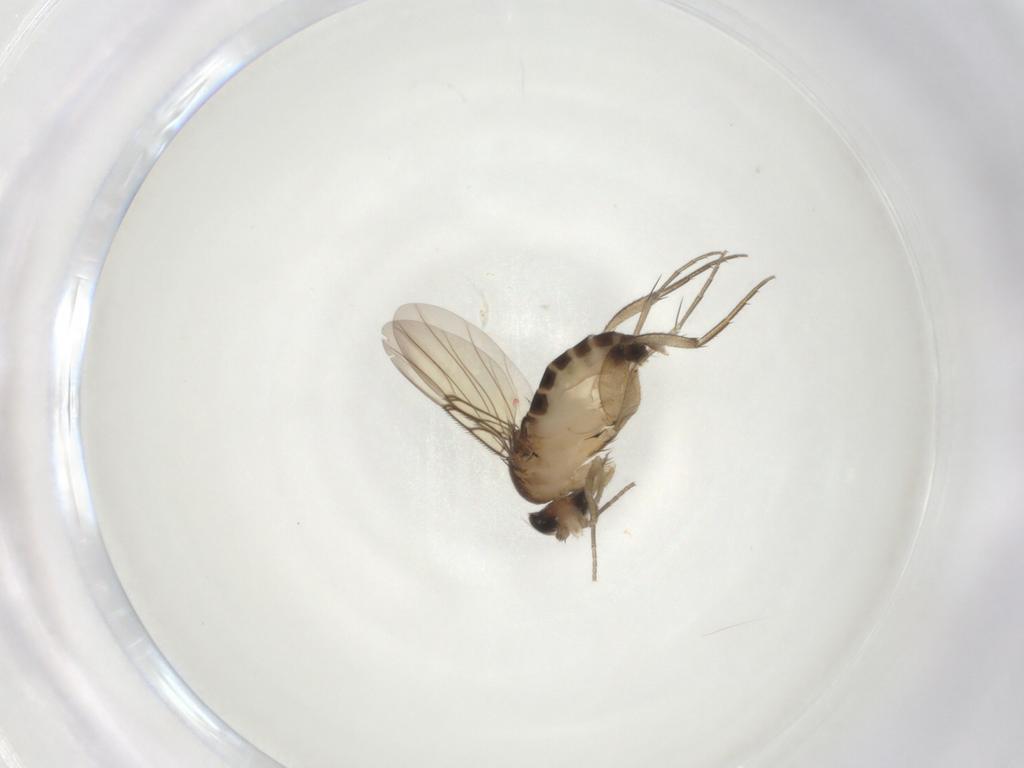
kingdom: Animalia
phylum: Arthropoda
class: Insecta
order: Diptera
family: Phoridae
